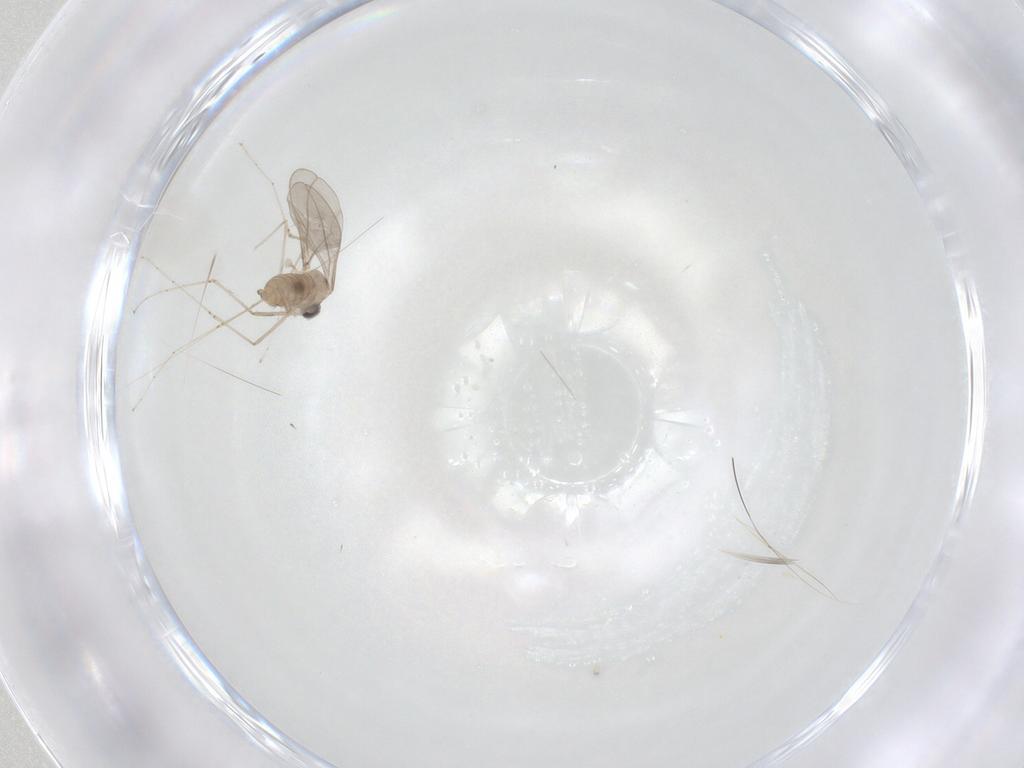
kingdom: Animalia
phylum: Arthropoda
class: Insecta
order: Diptera
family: Cecidomyiidae
